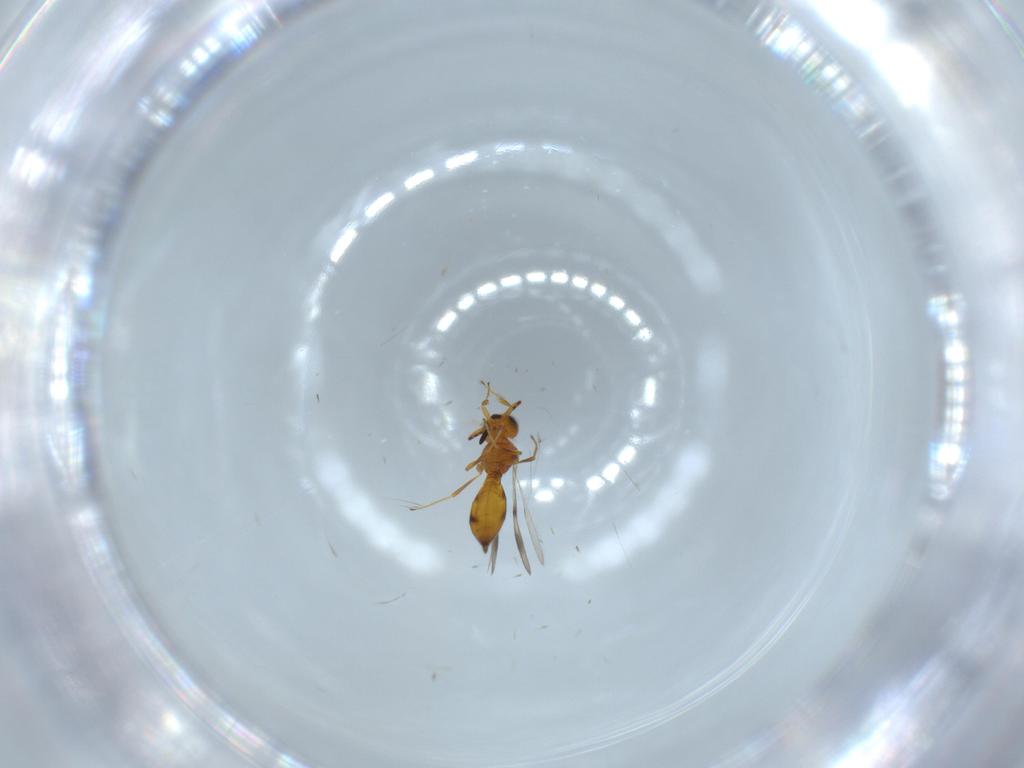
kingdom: Animalia
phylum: Arthropoda
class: Insecta
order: Hymenoptera
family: Scelionidae
